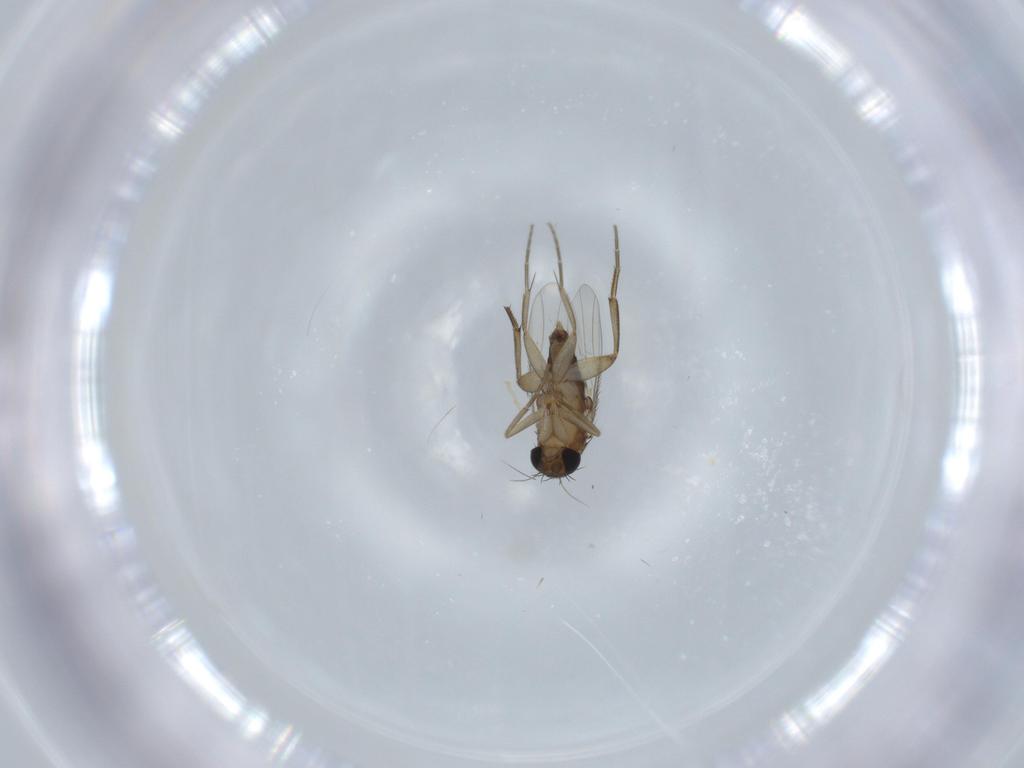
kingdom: Animalia
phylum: Arthropoda
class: Insecta
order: Diptera
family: Phoridae
